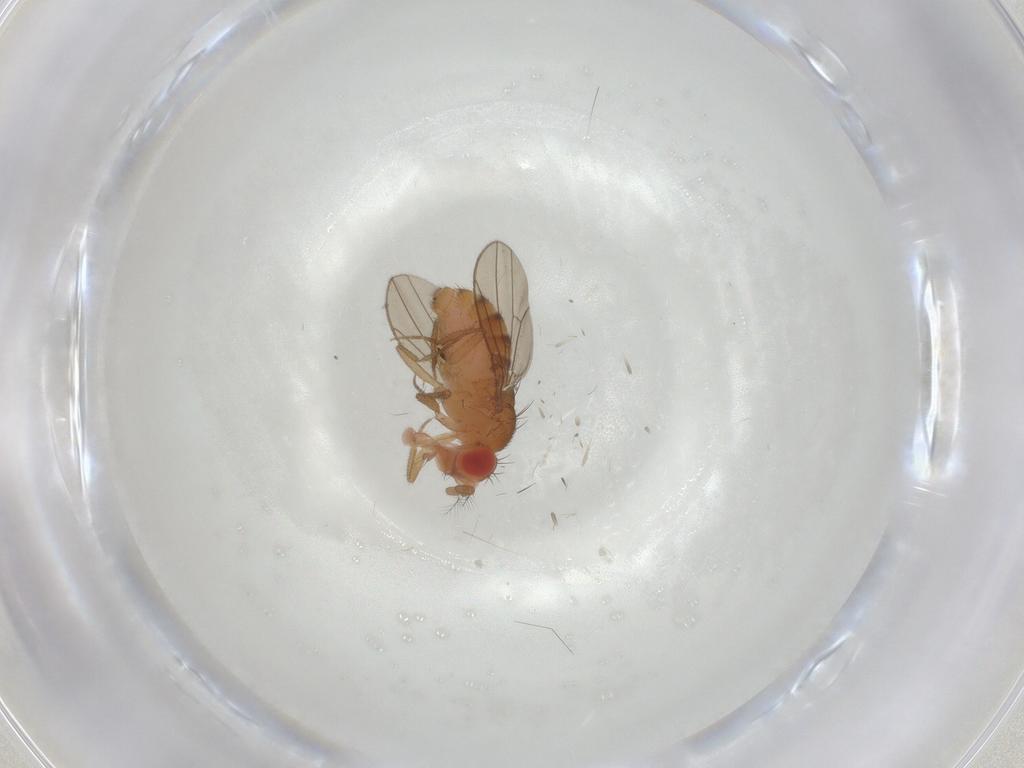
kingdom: Animalia
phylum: Arthropoda
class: Insecta
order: Diptera
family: Drosophilidae
